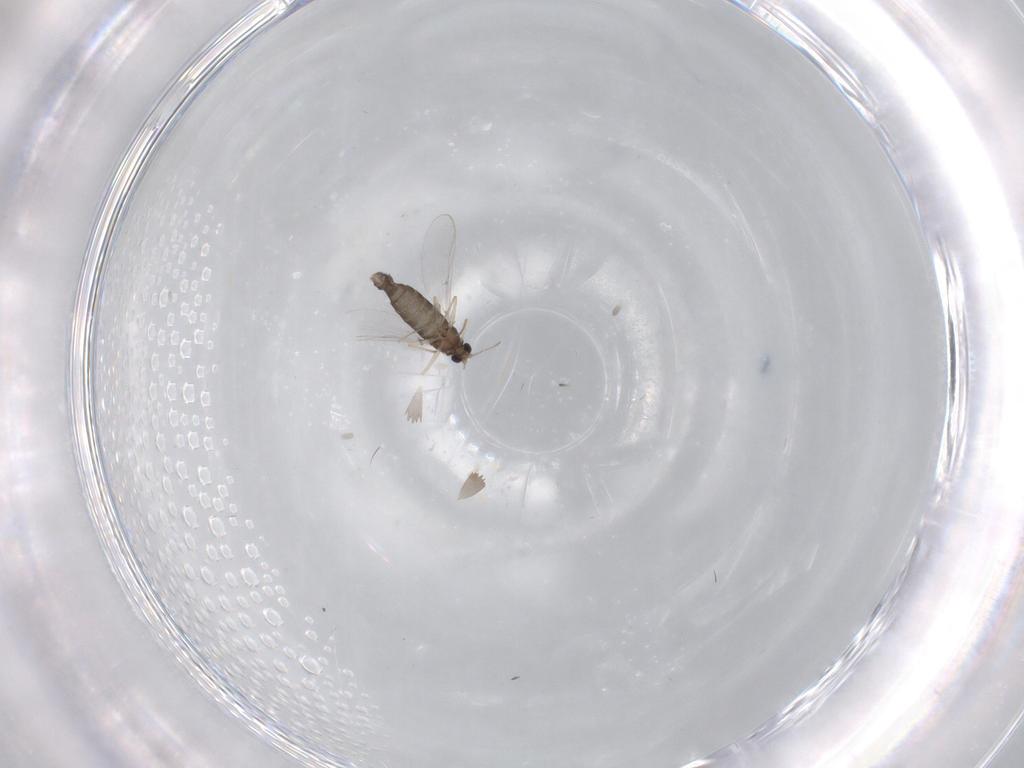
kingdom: Animalia
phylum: Arthropoda
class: Insecta
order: Diptera
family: Chironomidae
